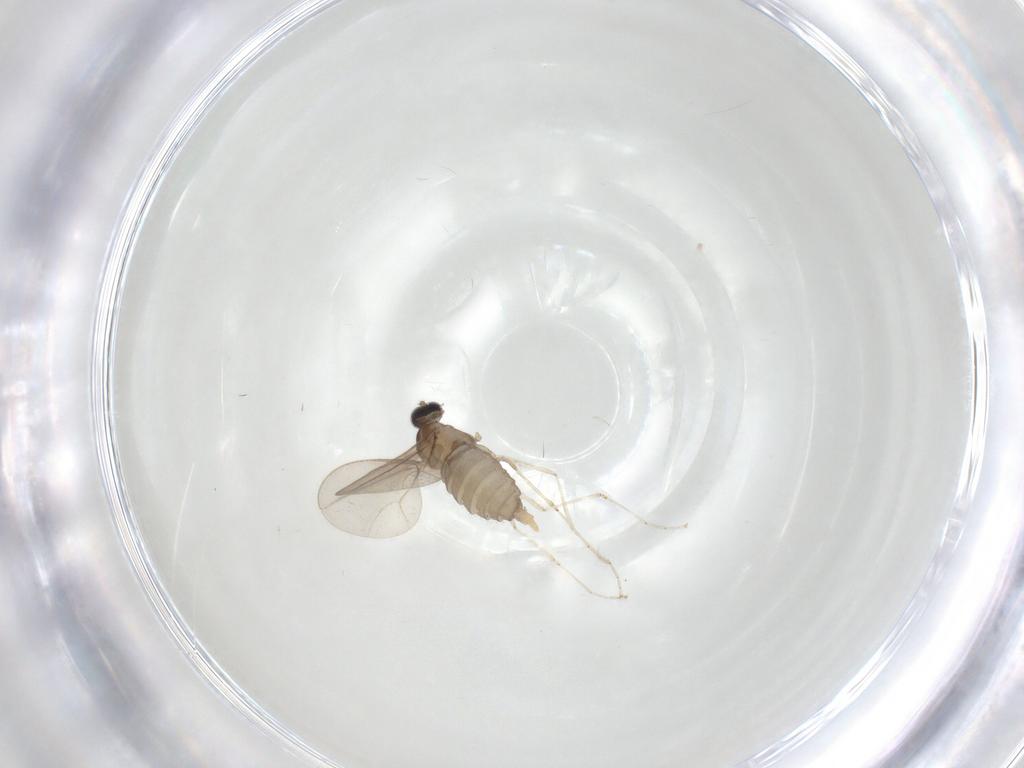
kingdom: Animalia
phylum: Arthropoda
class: Insecta
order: Diptera
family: Cecidomyiidae
